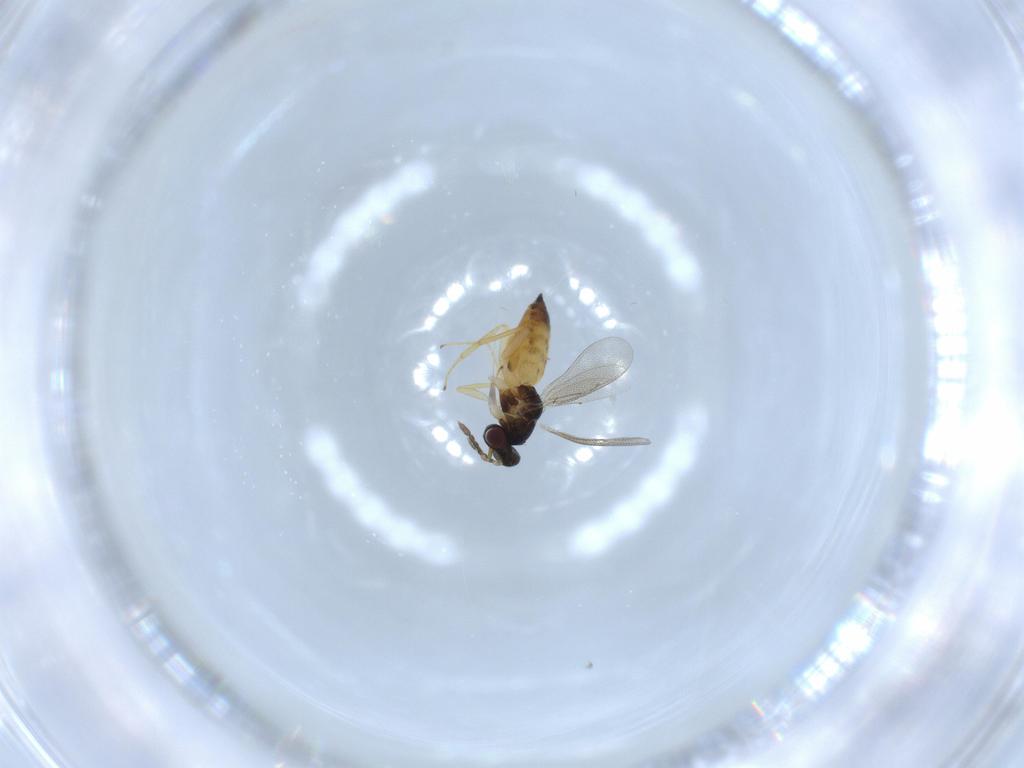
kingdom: Animalia
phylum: Arthropoda
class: Insecta
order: Hymenoptera
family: Eulophidae
